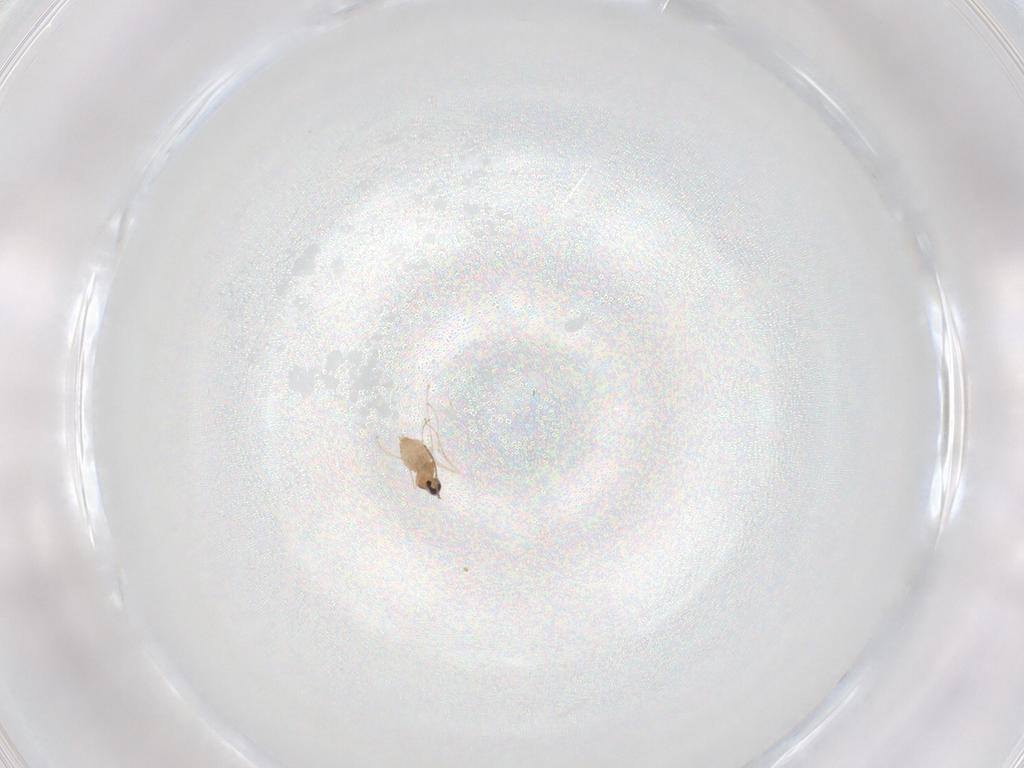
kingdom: Animalia
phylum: Arthropoda
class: Insecta
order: Diptera
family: Cecidomyiidae
